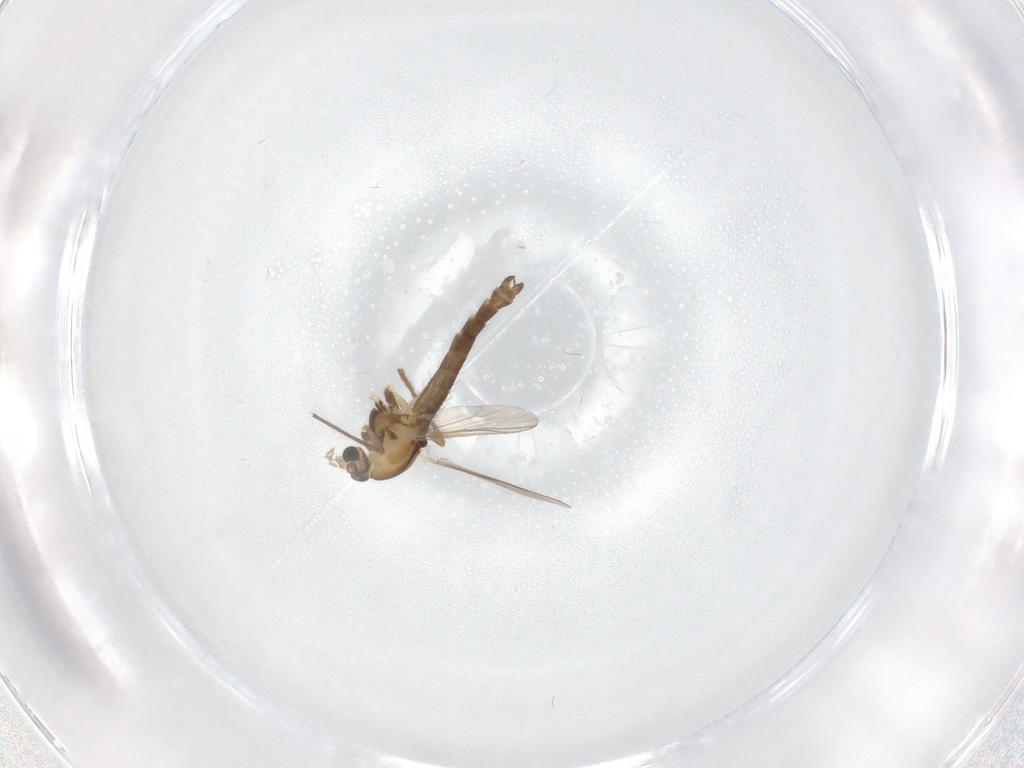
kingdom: Animalia
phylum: Arthropoda
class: Insecta
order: Diptera
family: Chironomidae
